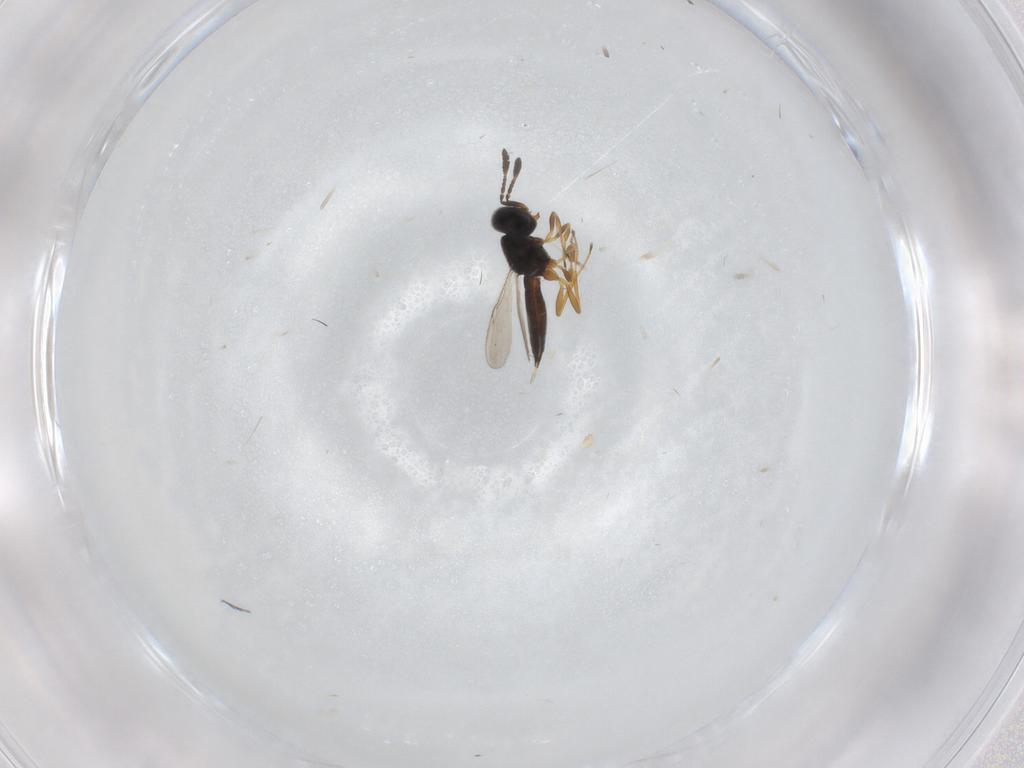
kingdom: Animalia
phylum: Arthropoda
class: Insecta
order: Hymenoptera
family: Scelionidae
